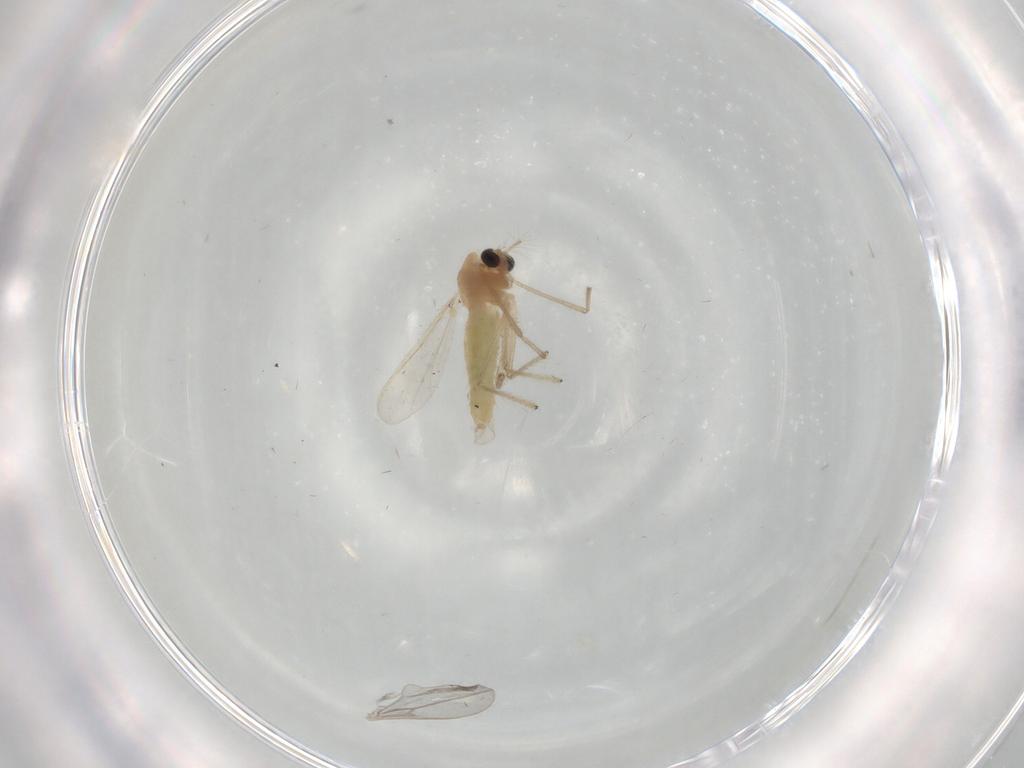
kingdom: Animalia
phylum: Arthropoda
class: Insecta
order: Diptera
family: Chironomidae
